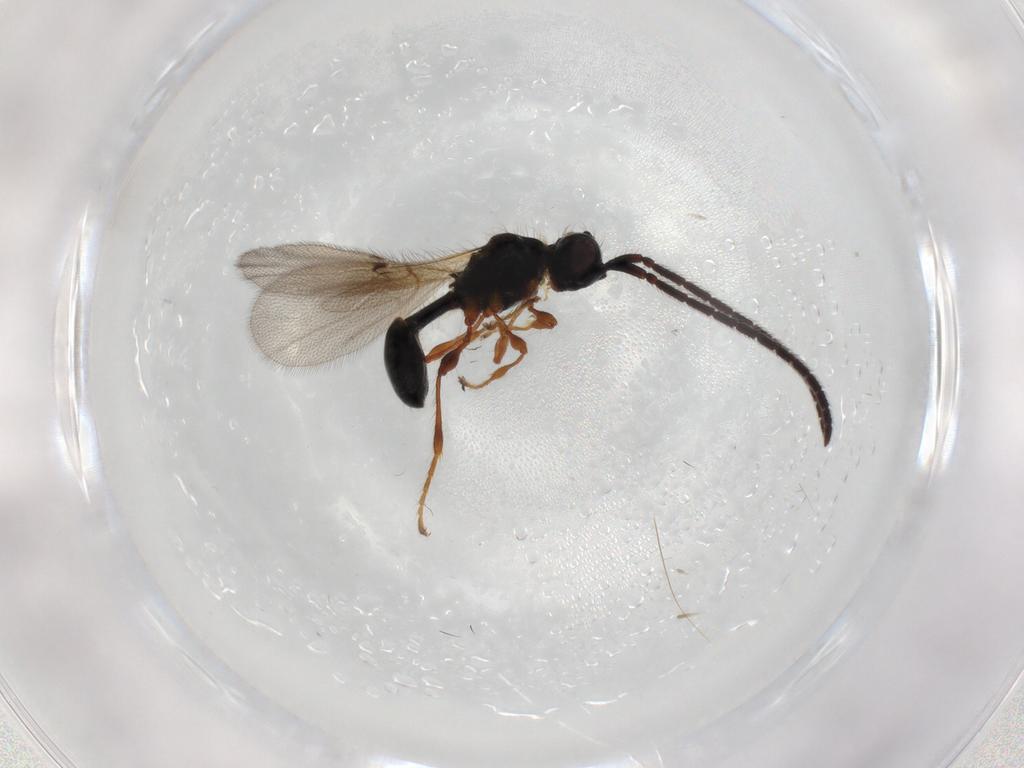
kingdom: Animalia
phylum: Arthropoda
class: Insecta
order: Hymenoptera
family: Diapriidae
